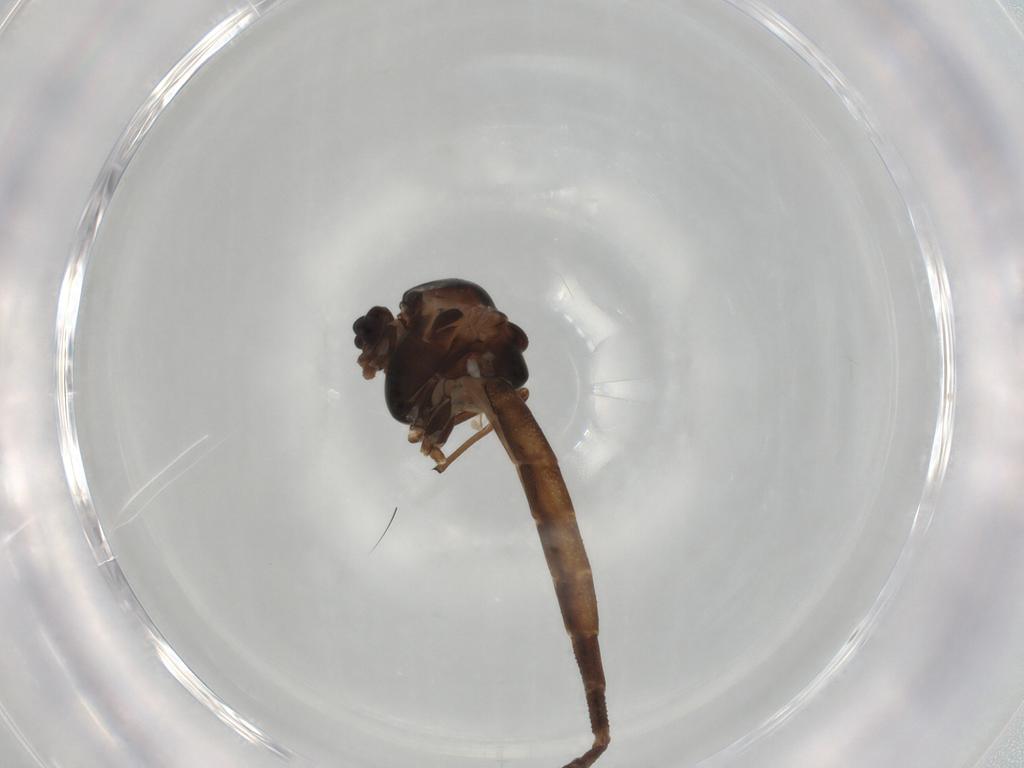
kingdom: Animalia
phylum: Arthropoda
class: Insecta
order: Diptera
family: Chironomidae
